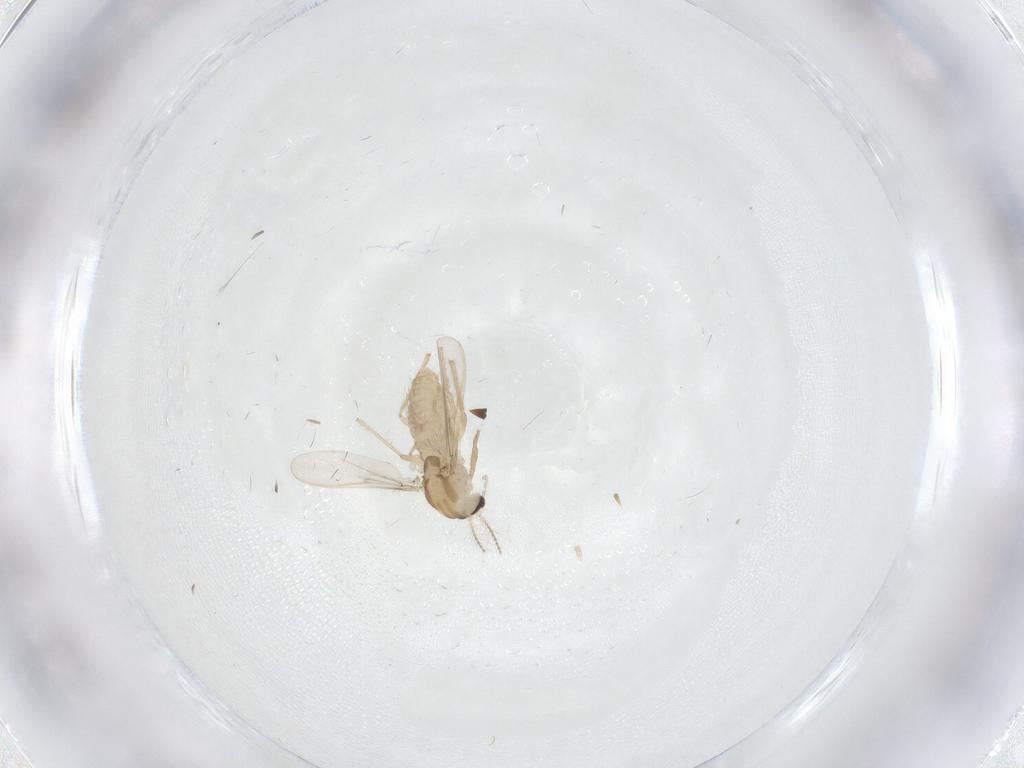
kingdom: Animalia
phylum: Arthropoda
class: Insecta
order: Diptera
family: Chironomidae
